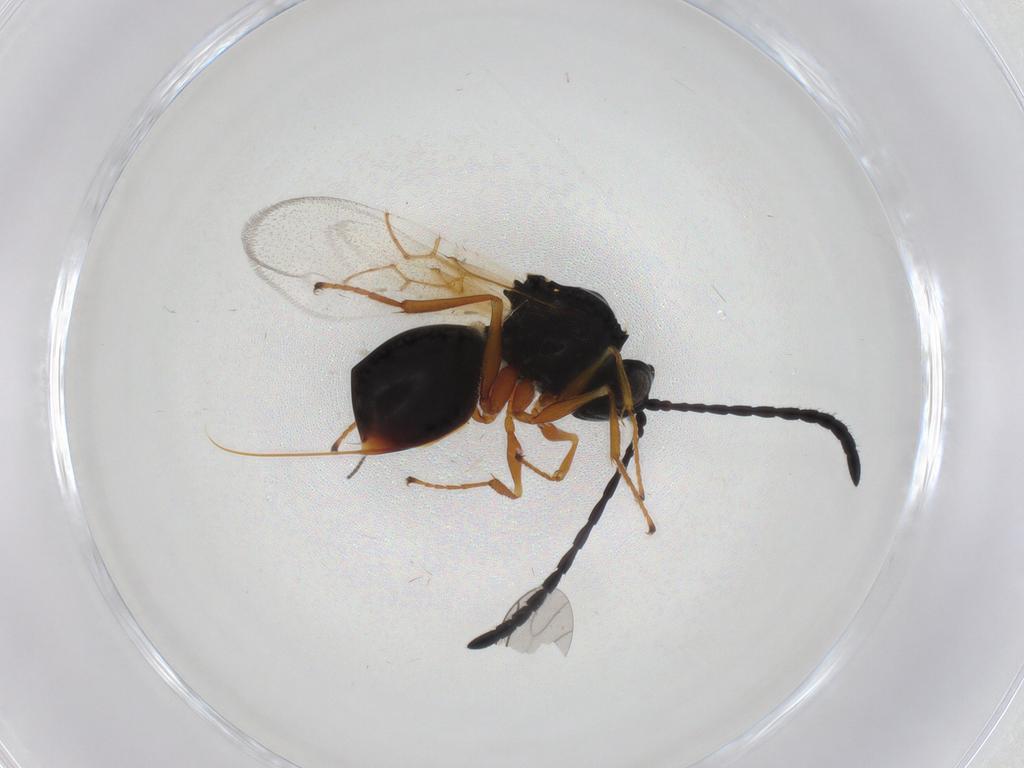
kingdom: Animalia
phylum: Arthropoda
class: Insecta
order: Hymenoptera
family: Figitidae
